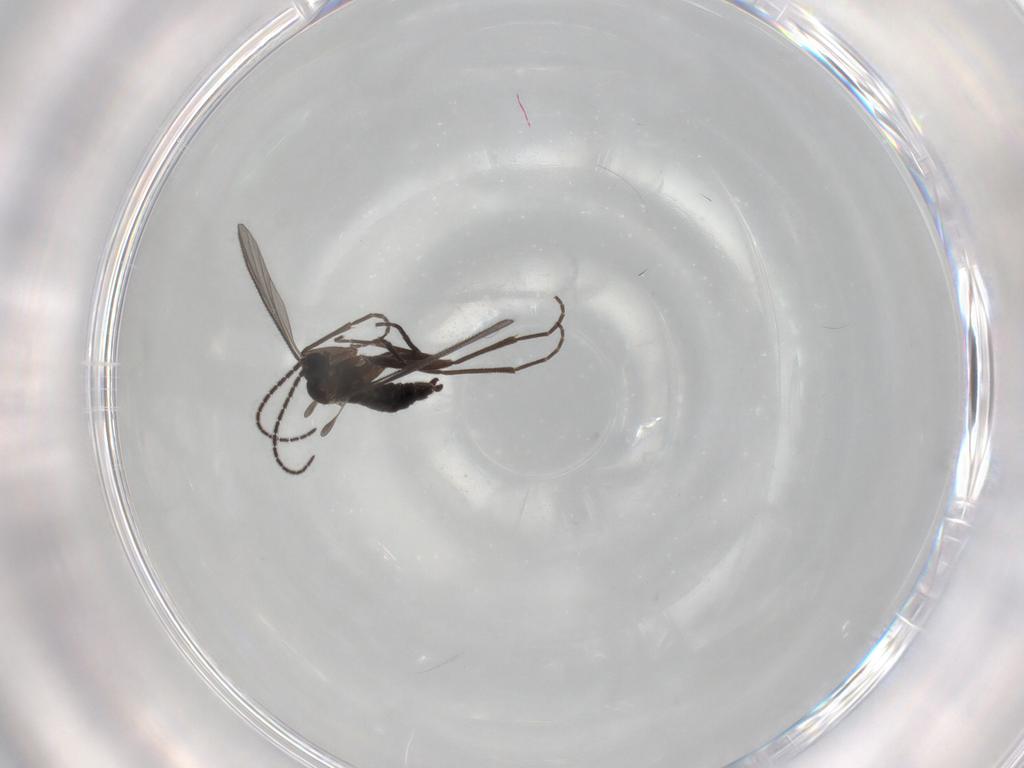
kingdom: Animalia
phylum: Arthropoda
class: Insecta
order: Diptera
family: Sciaridae
